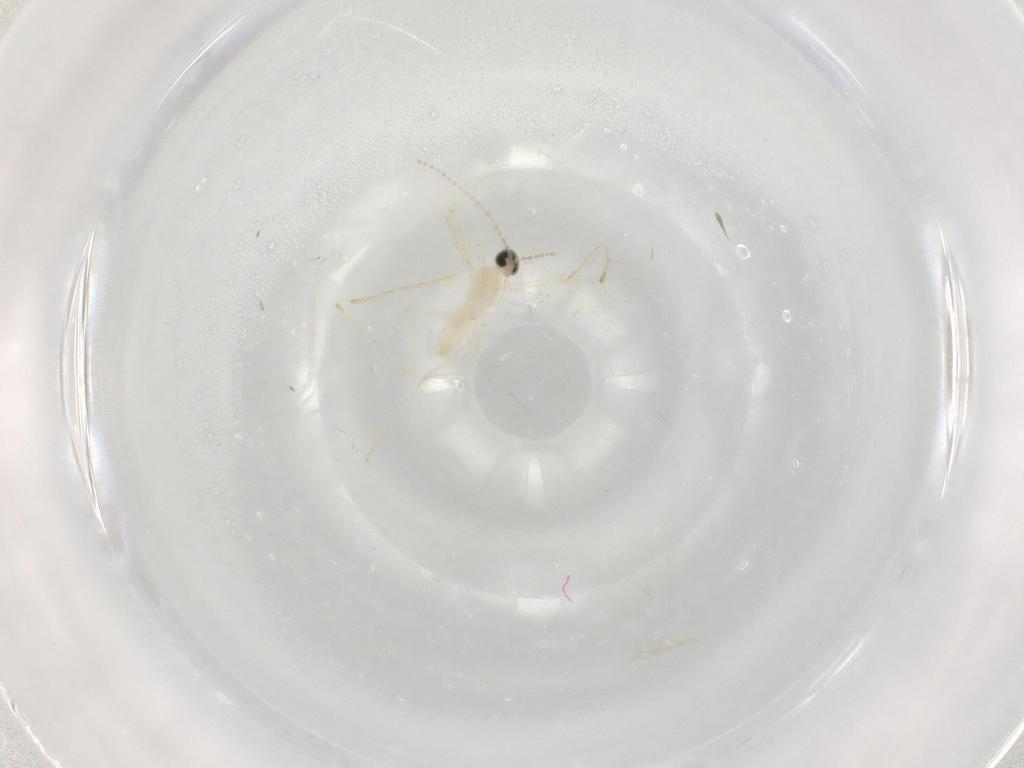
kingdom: Animalia
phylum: Arthropoda
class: Insecta
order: Diptera
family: Cecidomyiidae
